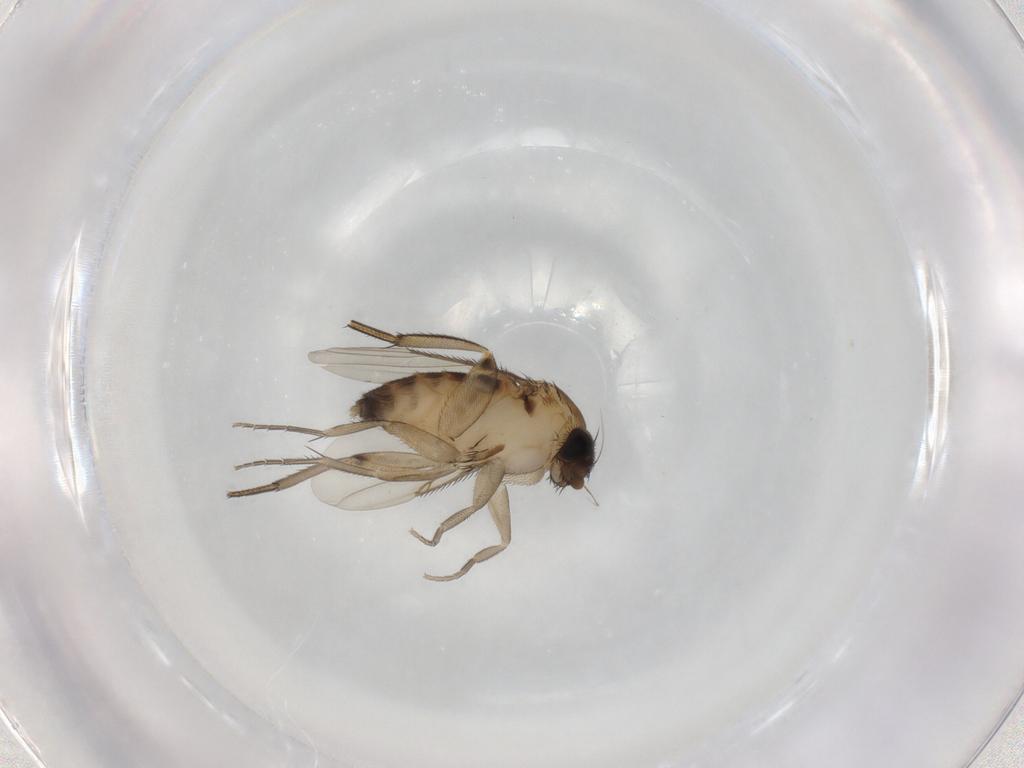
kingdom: Animalia
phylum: Arthropoda
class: Insecta
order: Diptera
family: Phoridae
